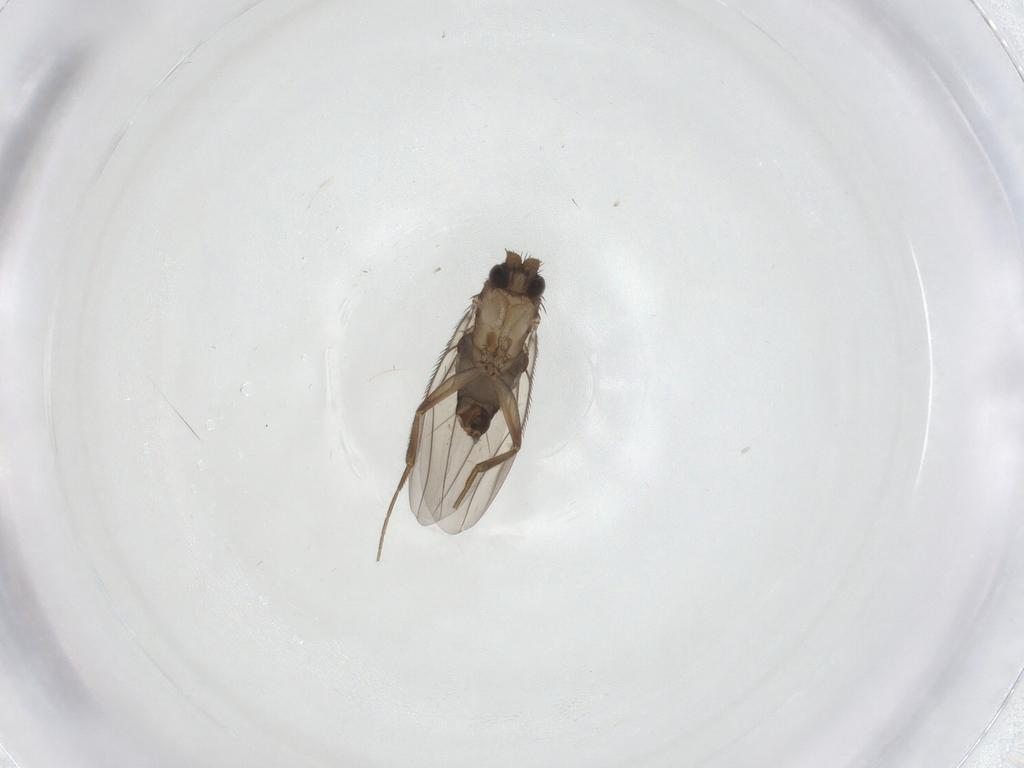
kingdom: Animalia
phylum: Arthropoda
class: Insecta
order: Diptera
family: Phoridae
